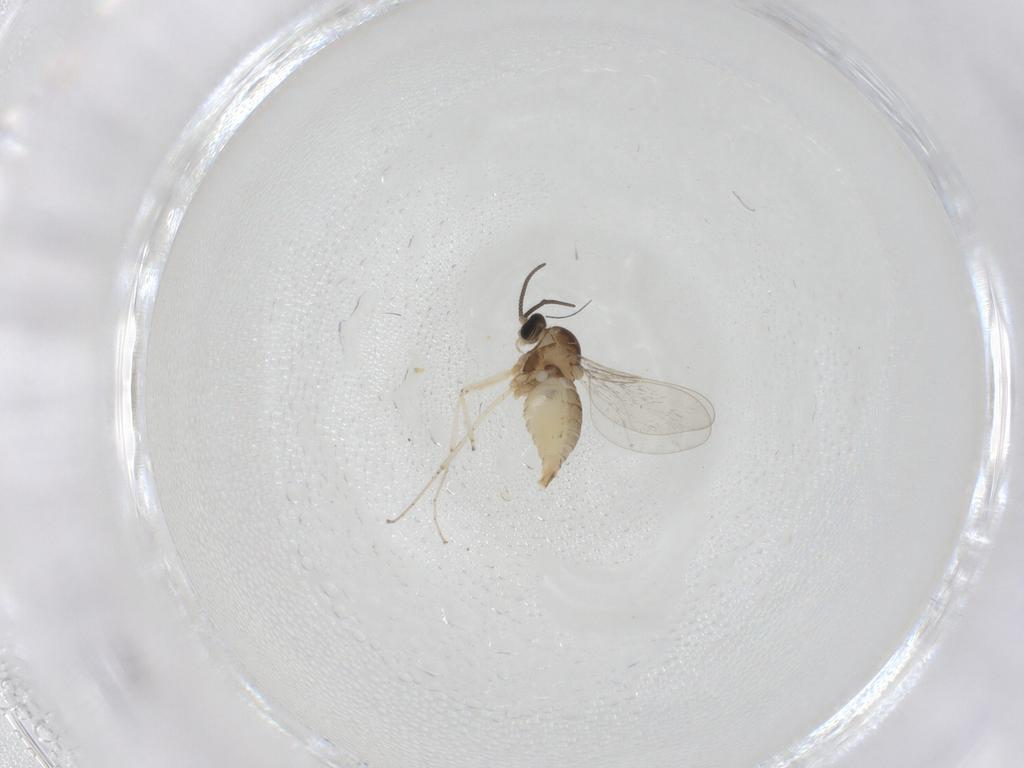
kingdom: Animalia
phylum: Arthropoda
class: Insecta
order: Diptera
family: Cecidomyiidae
